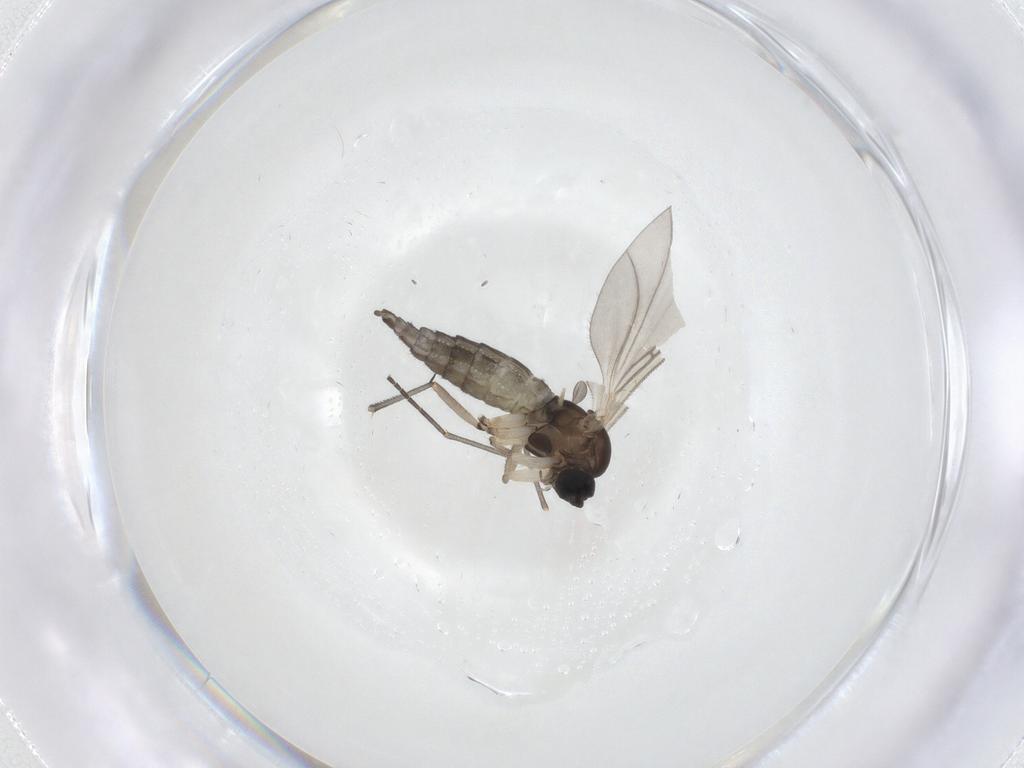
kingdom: Animalia
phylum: Arthropoda
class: Insecta
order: Diptera
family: Sciaridae
